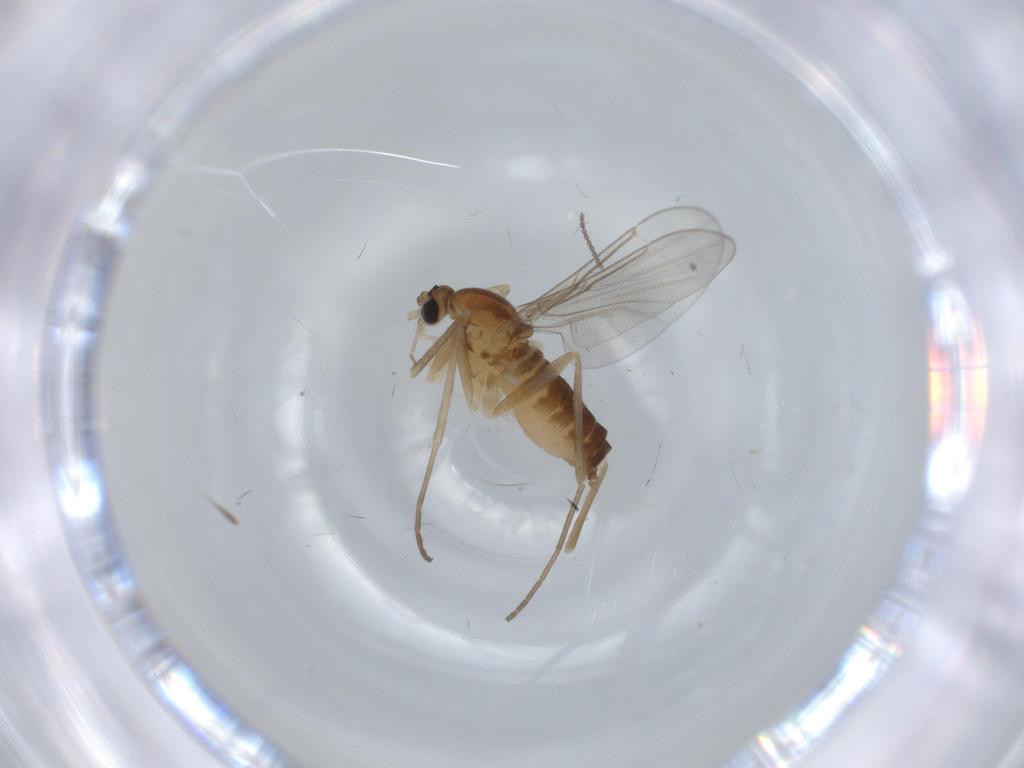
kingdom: Animalia
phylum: Arthropoda
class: Insecta
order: Diptera
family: Cecidomyiidae
